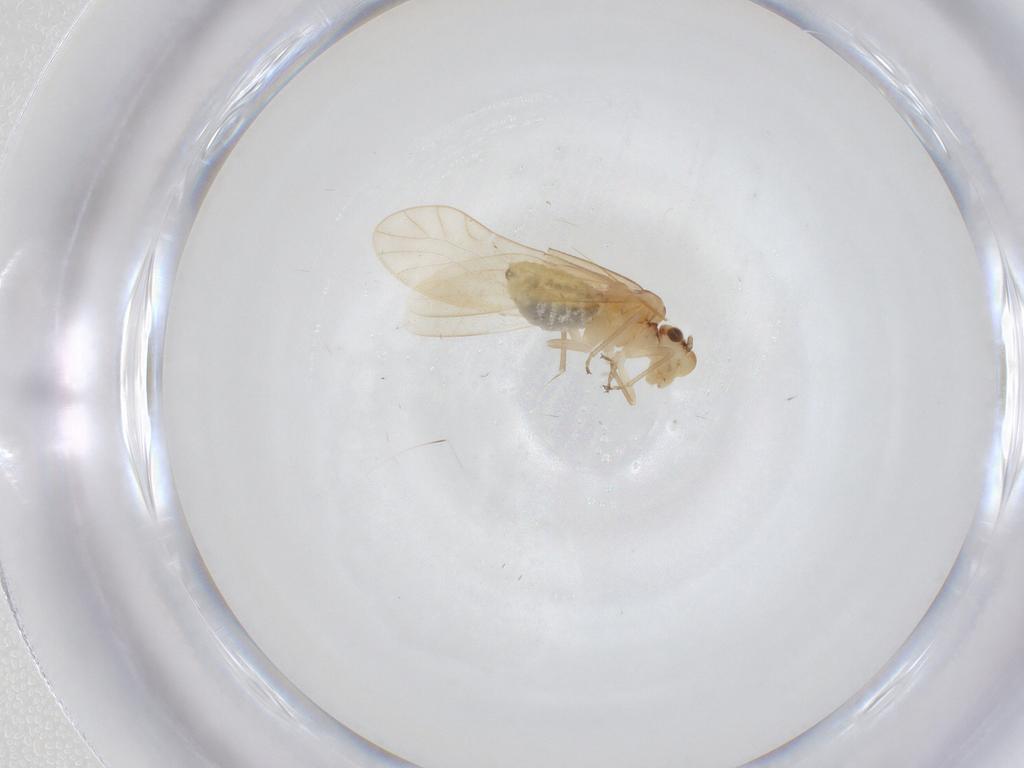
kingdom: Animalia
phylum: Arthropoda
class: Insecta
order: Psocodea
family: Caeciliusidae
